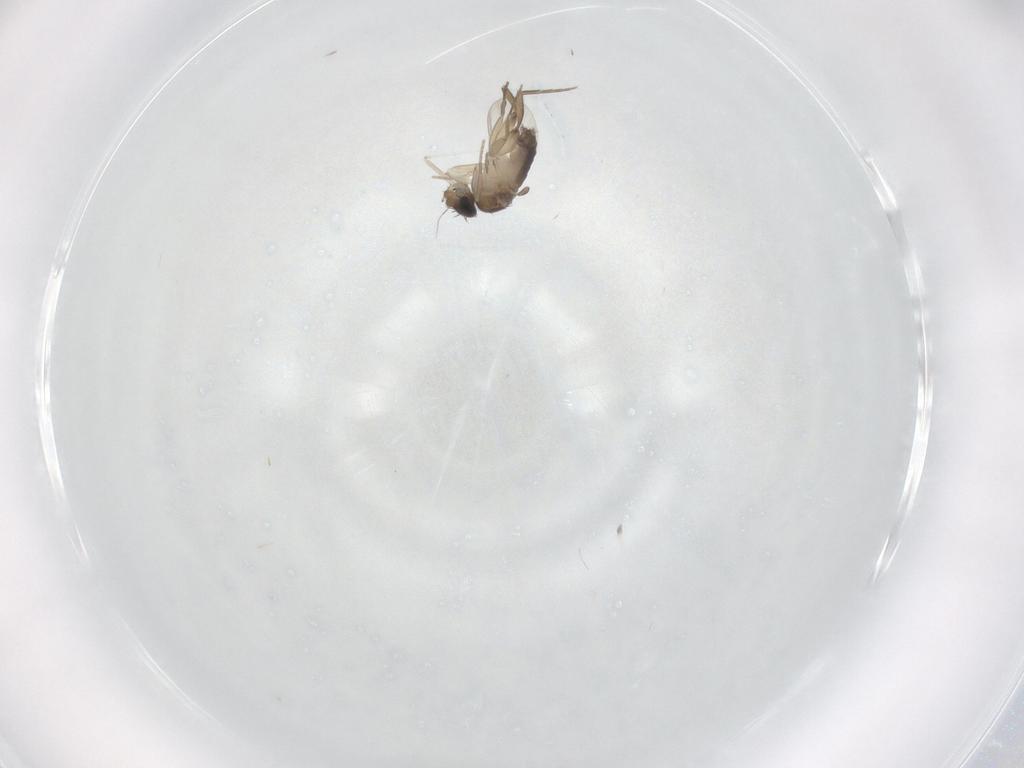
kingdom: Animalia
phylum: Arthropoda
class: Insecta
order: Diptera
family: Phoridae
